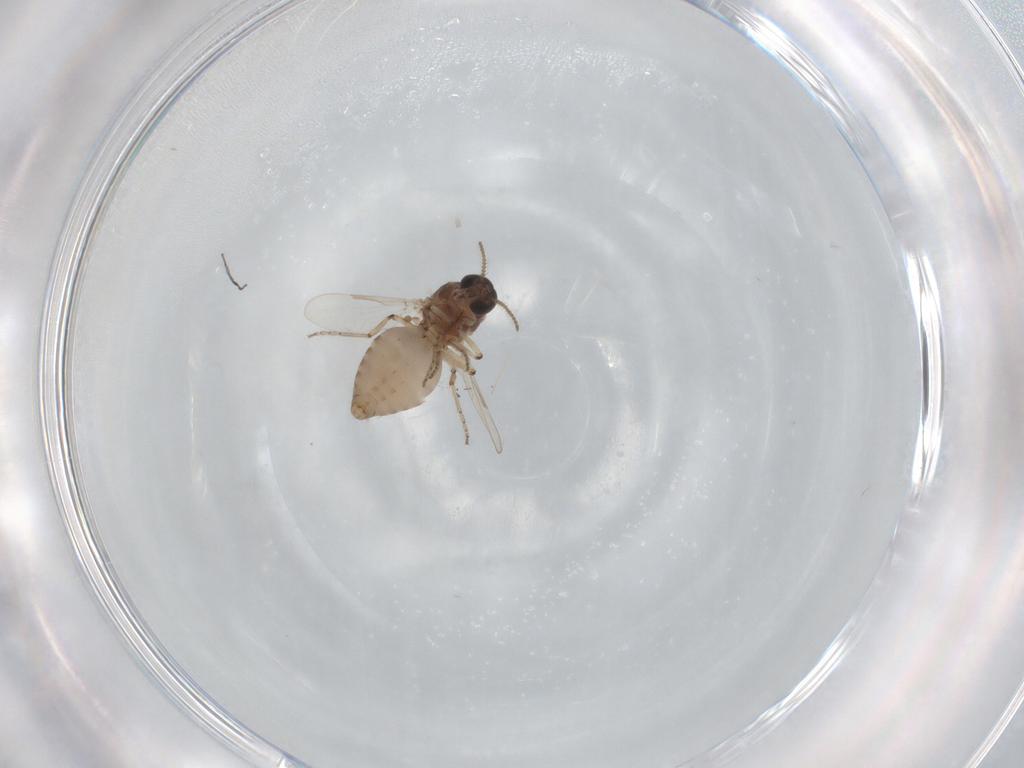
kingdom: Animalia
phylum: Arthropoda
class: Insecta
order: Diptera
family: Ceratopogonidae
